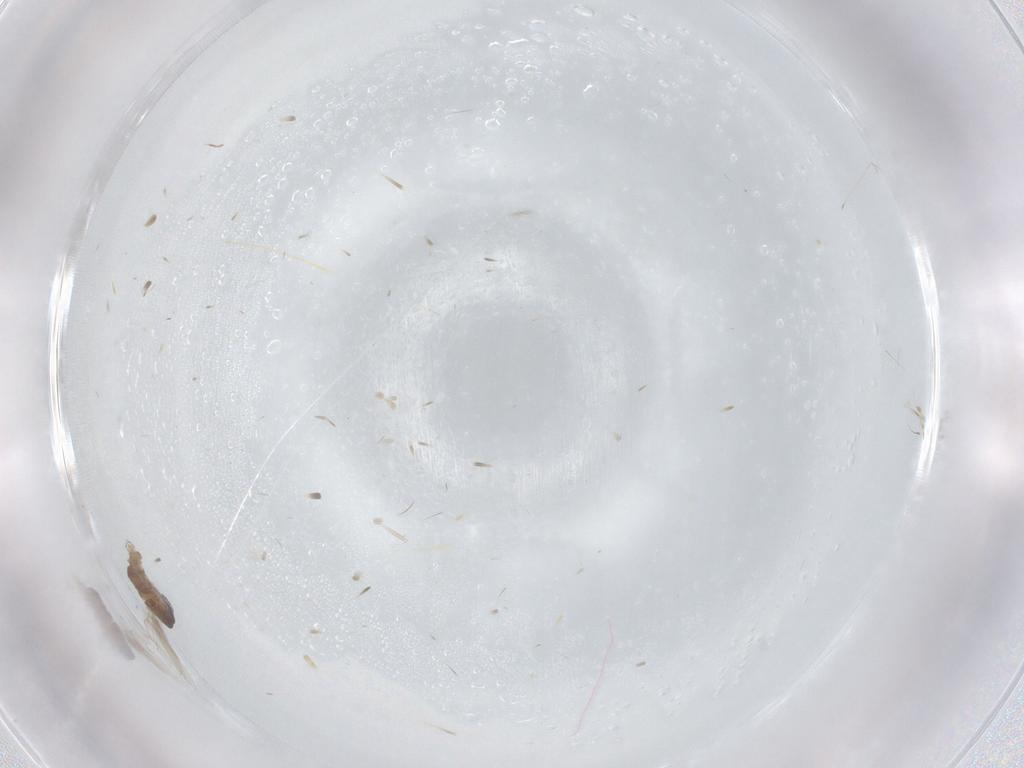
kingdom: Animalia
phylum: Arthropoda
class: Insecta
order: Diptera
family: Psychodidae
